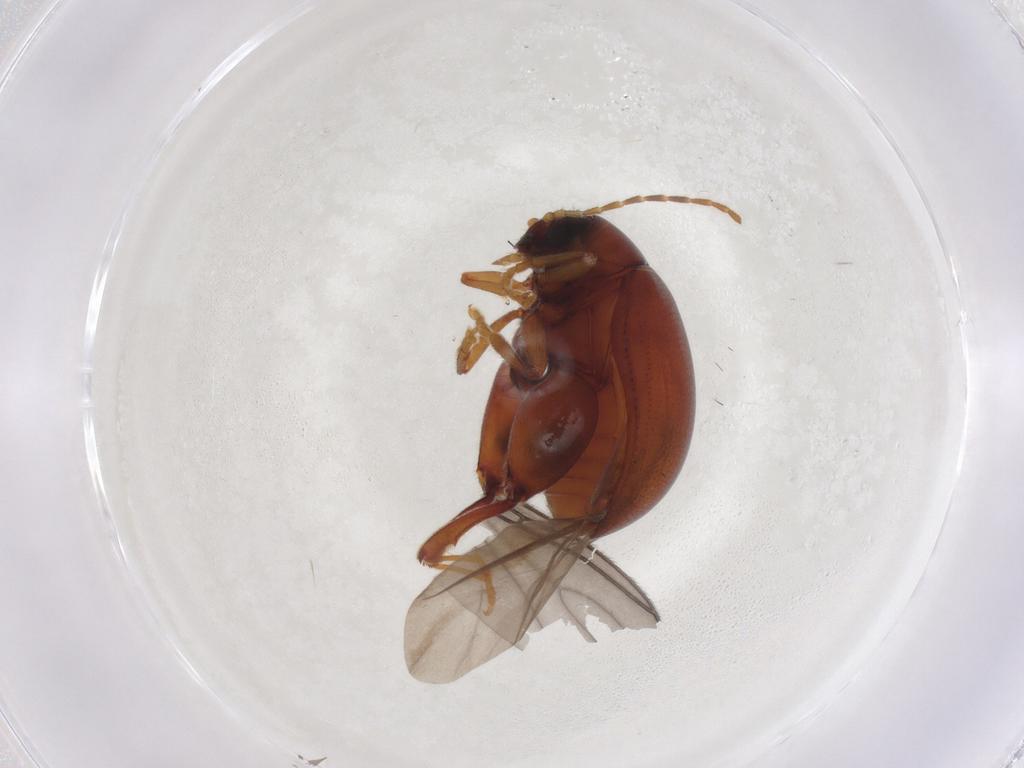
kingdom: Animalia
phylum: Arthropoda
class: Insecta
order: Coleoptera
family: Chrysomelidae
